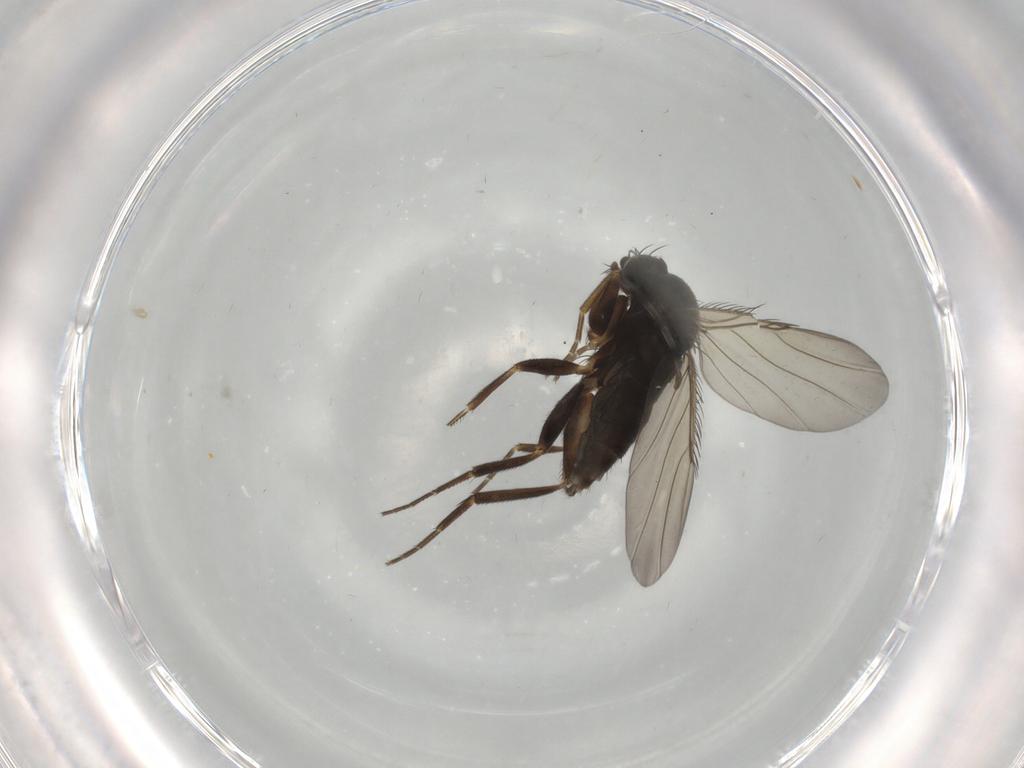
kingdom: Animalia
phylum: Arthropoda
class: Insecta
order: Diptera
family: Phoridae
